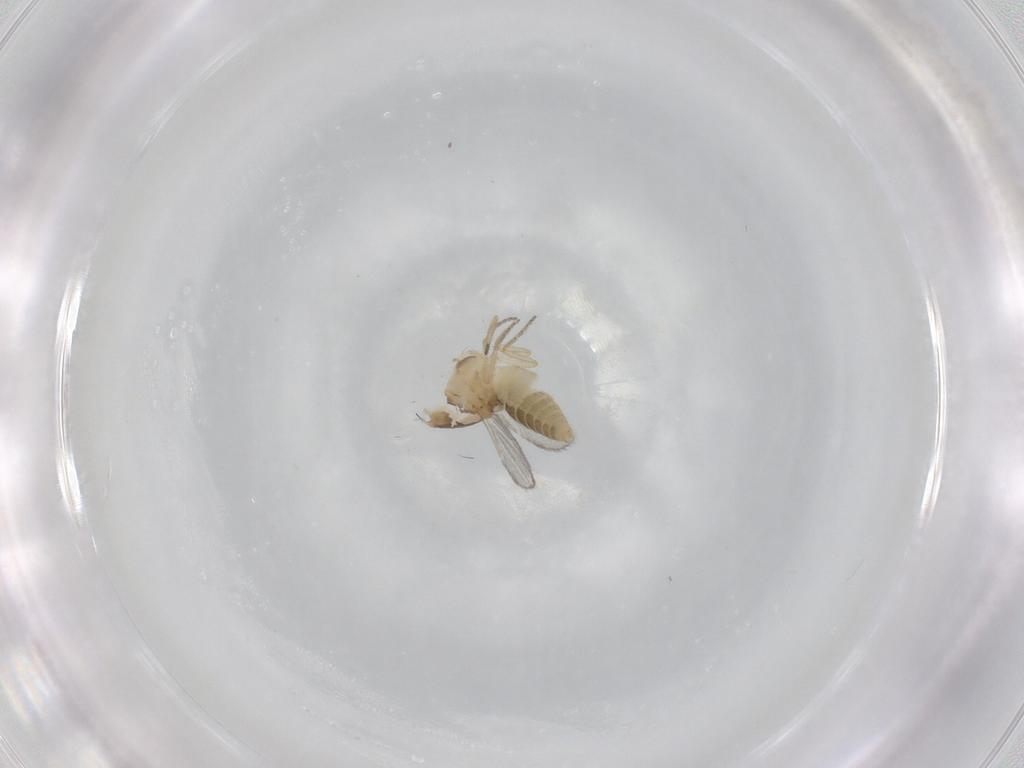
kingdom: Animalia
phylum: Arthropoda
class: Insecta
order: Diptera
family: Ceratopogonidae
